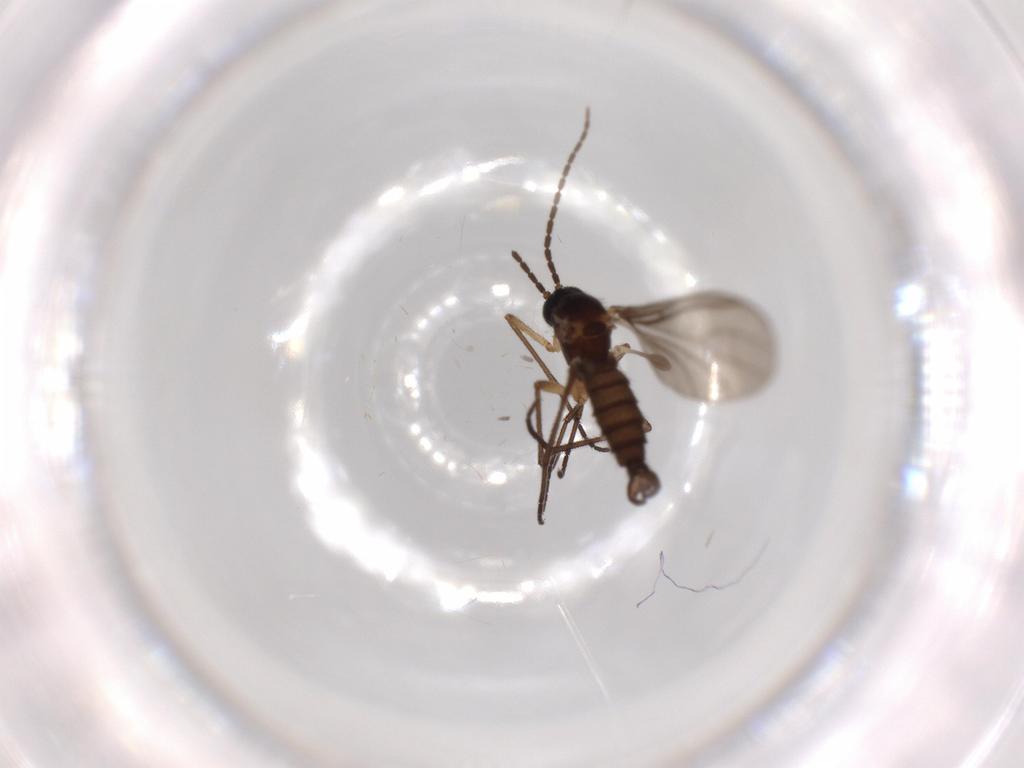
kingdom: Animalia
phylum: Arthropoda
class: Insecta
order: Diptera
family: Sciaridae
